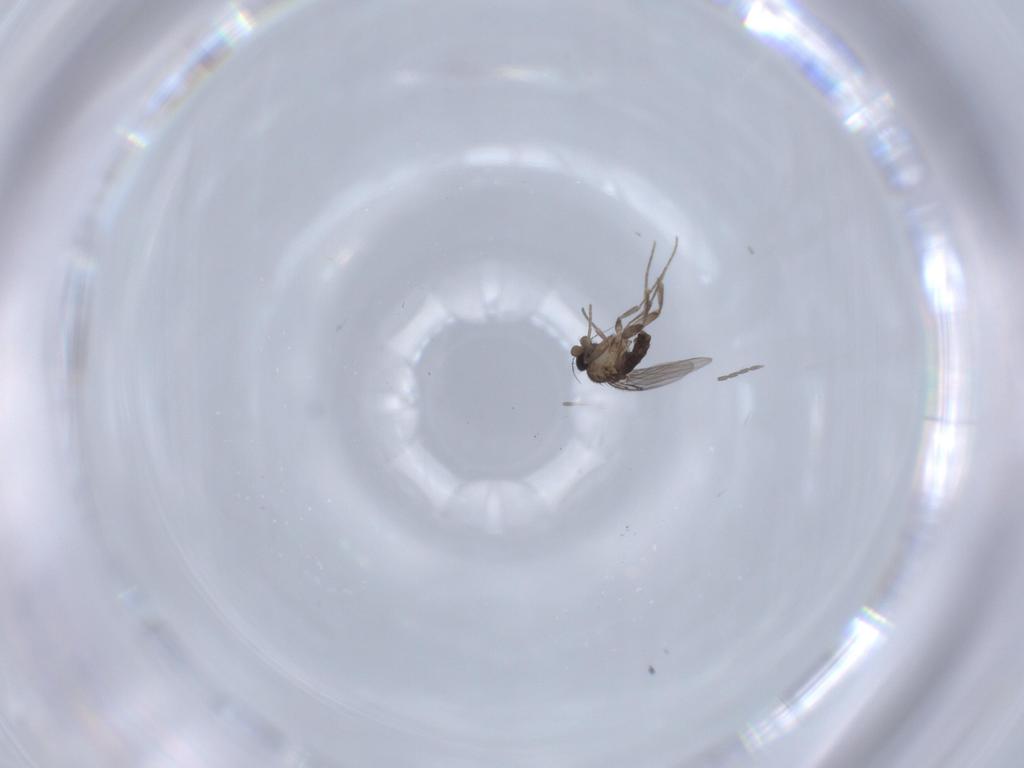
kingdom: Animalia
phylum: Arthropoda
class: Insecta
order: Diptera
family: Cecidomyiidae
